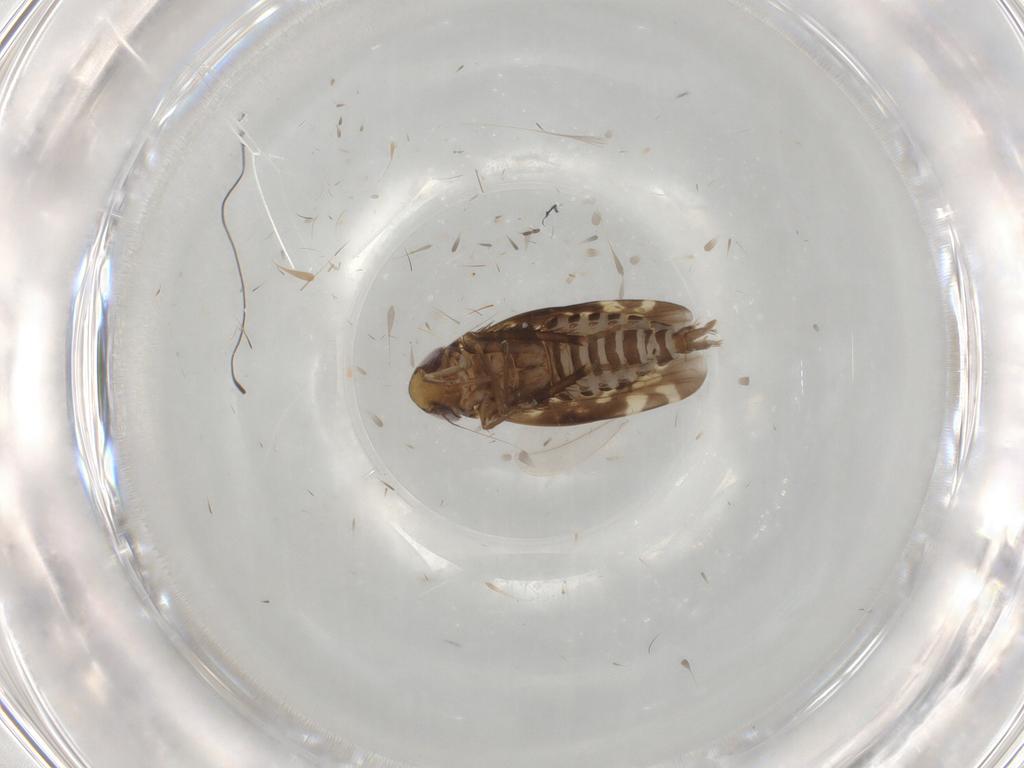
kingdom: Animalia
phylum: Arthropoda
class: Insecta
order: Hemiptera
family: Cicadellidae
